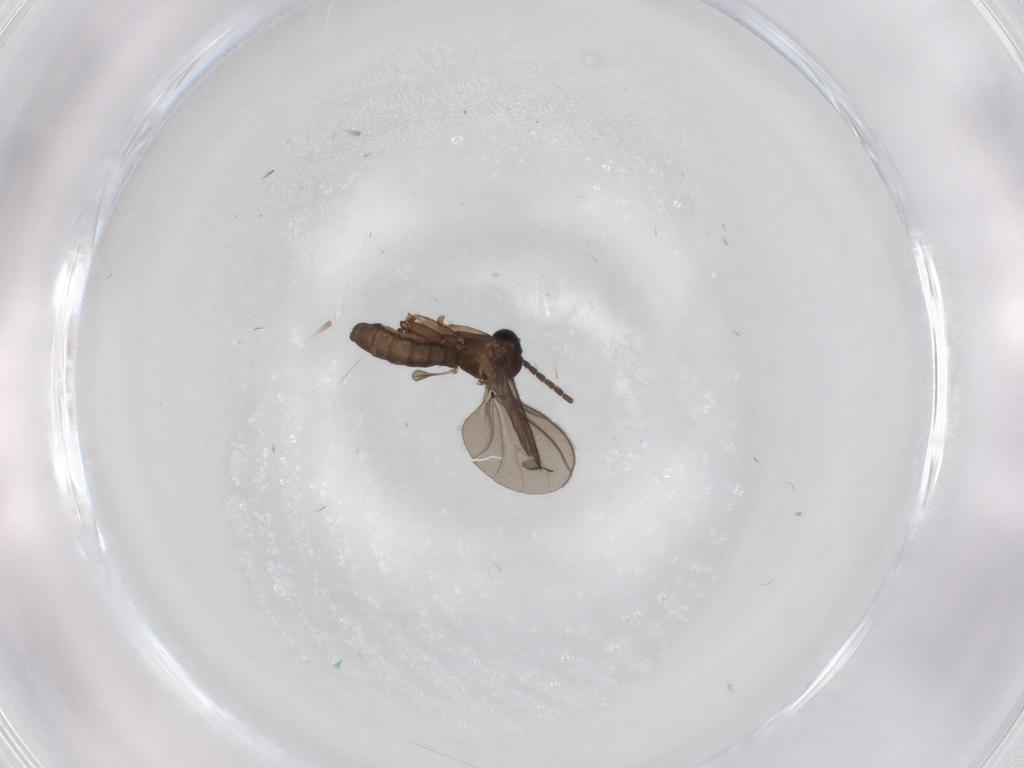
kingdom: Animalia
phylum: Arthropoda
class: Insecta
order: Diptera
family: Sciaridae
